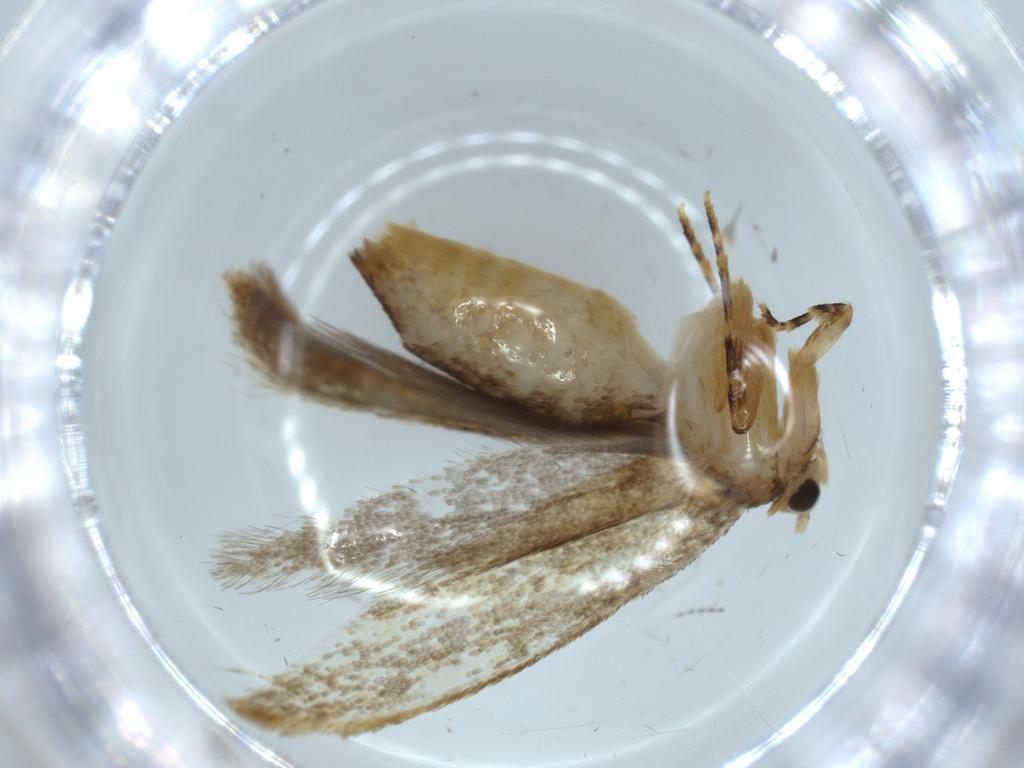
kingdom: Animalia
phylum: Arthropoda
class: Insecta
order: Lepidoptera
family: Tineidae
